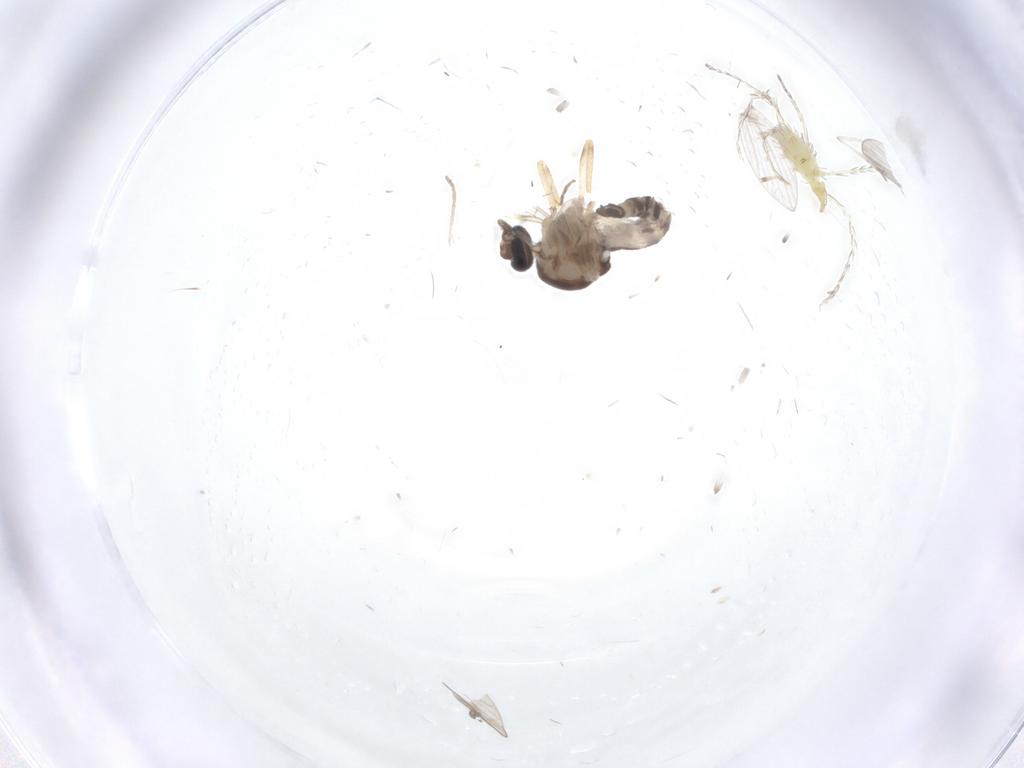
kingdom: Animalia
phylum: Arthropoda
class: Insecta
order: Diptera
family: Ceratopogonidae
